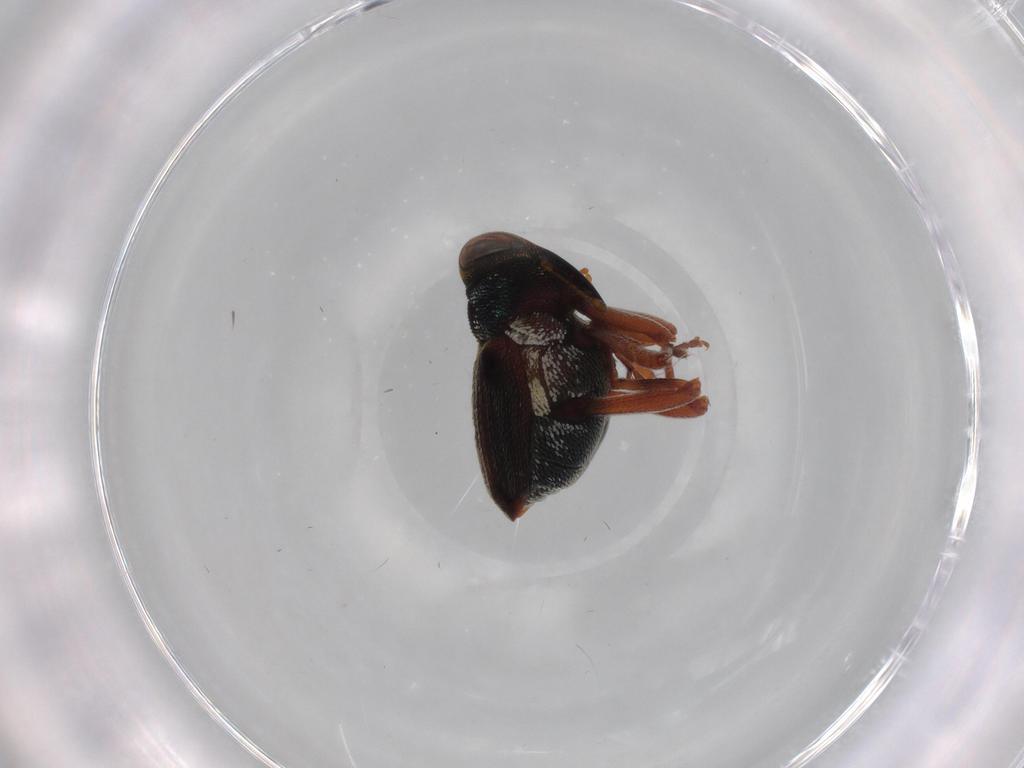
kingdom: Animalia
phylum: Arthropoda
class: Insecta
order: Coleoptera
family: Curculionidae
